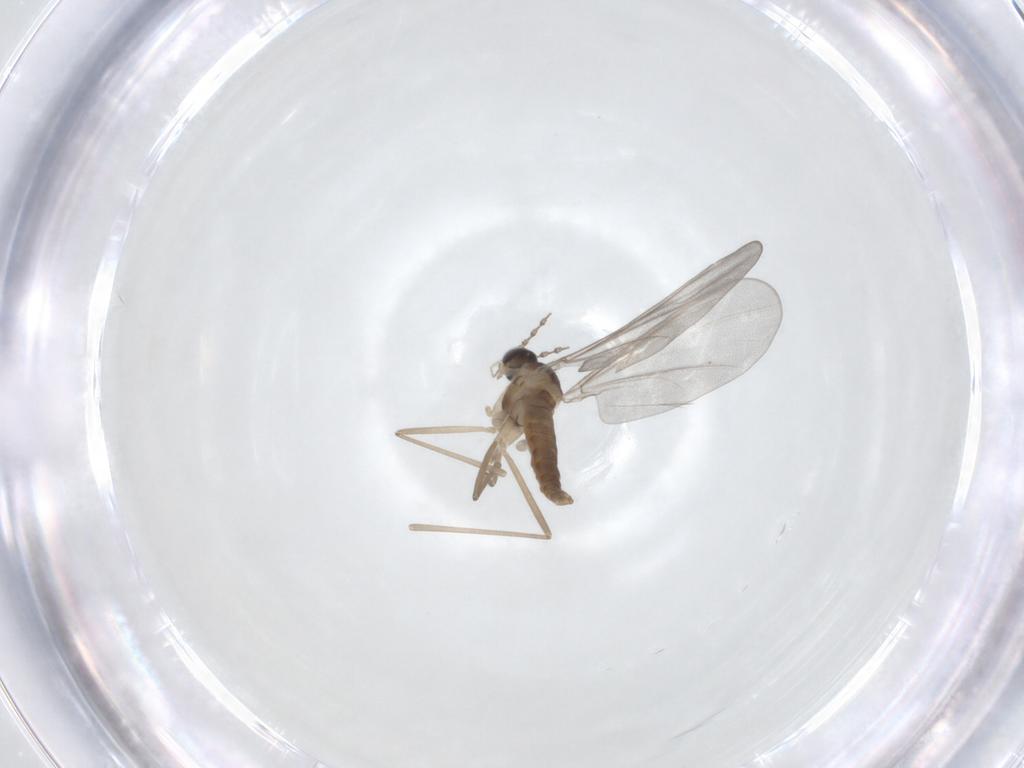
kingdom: Animalia
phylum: Arthropoda
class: Insecta
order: Diptera
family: Cecidomyiidae
